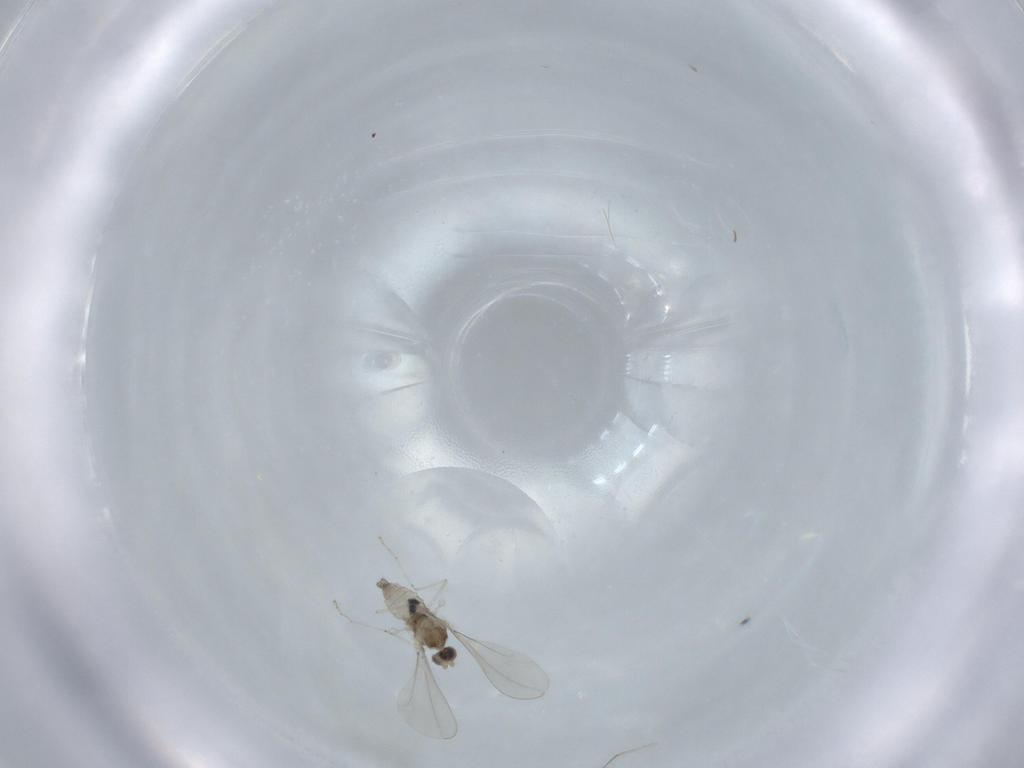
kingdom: Animalia
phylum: Arthropoda
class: Insecta
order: Diptera
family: Cecidomyiidae
